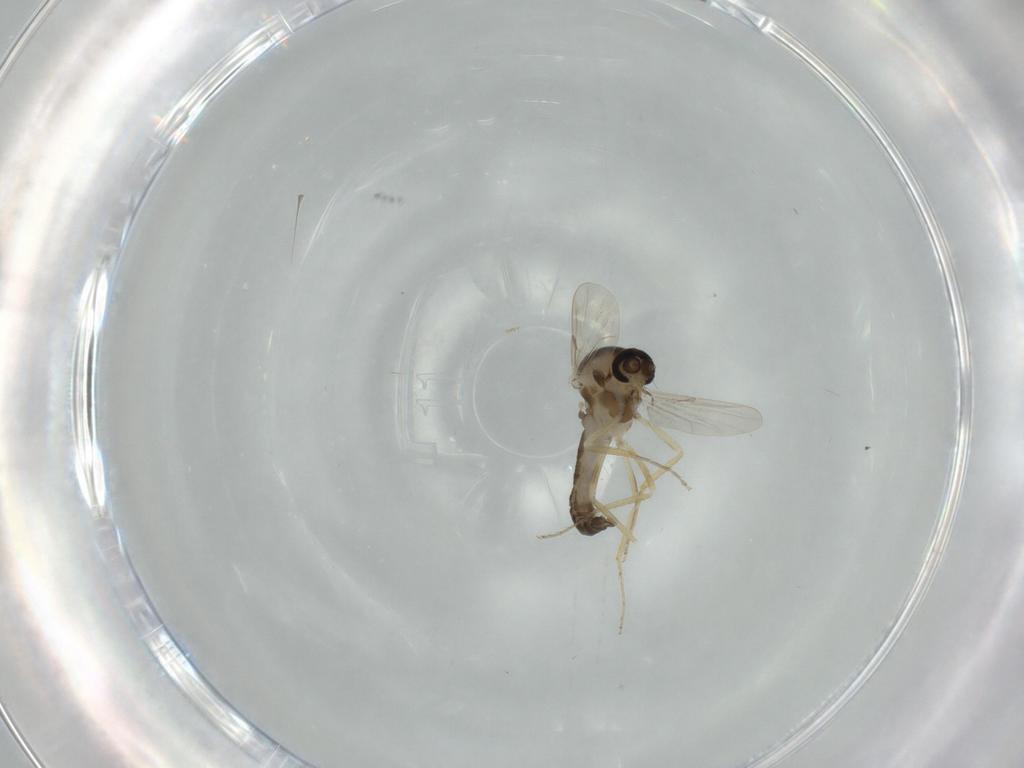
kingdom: Animalia
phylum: Arthropoda
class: Insecta
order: Diptera
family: Ceratopogonidae
